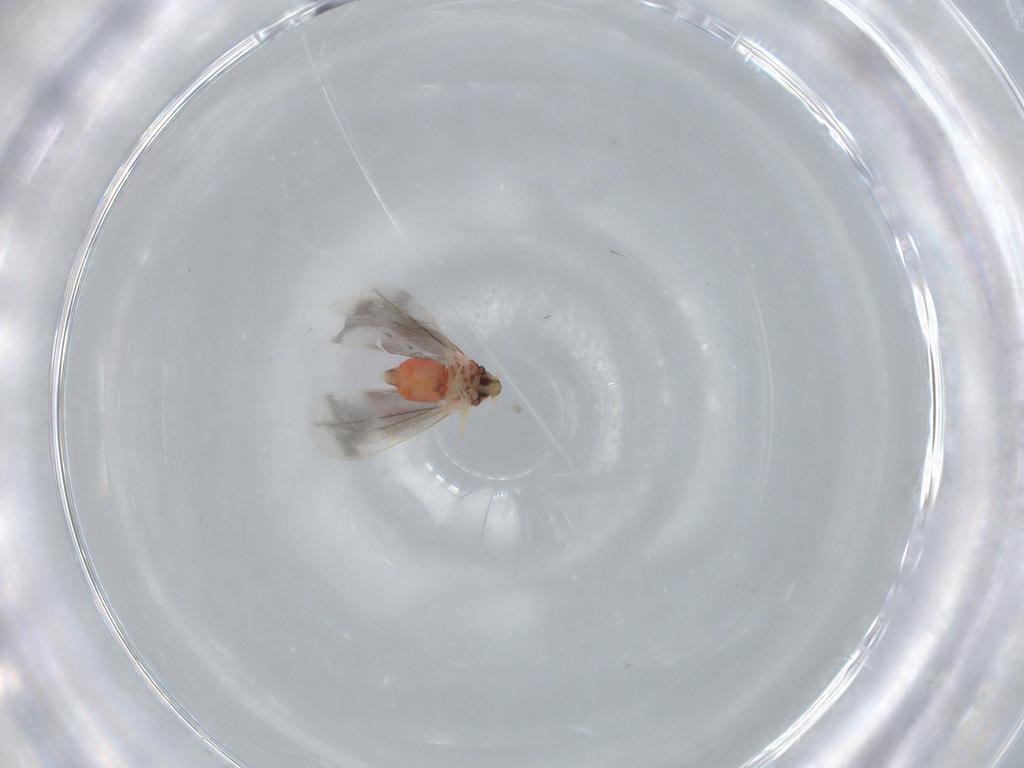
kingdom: Animalia
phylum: Arthropoda
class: Insecta
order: Hemiptera
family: Aleyrodidae
